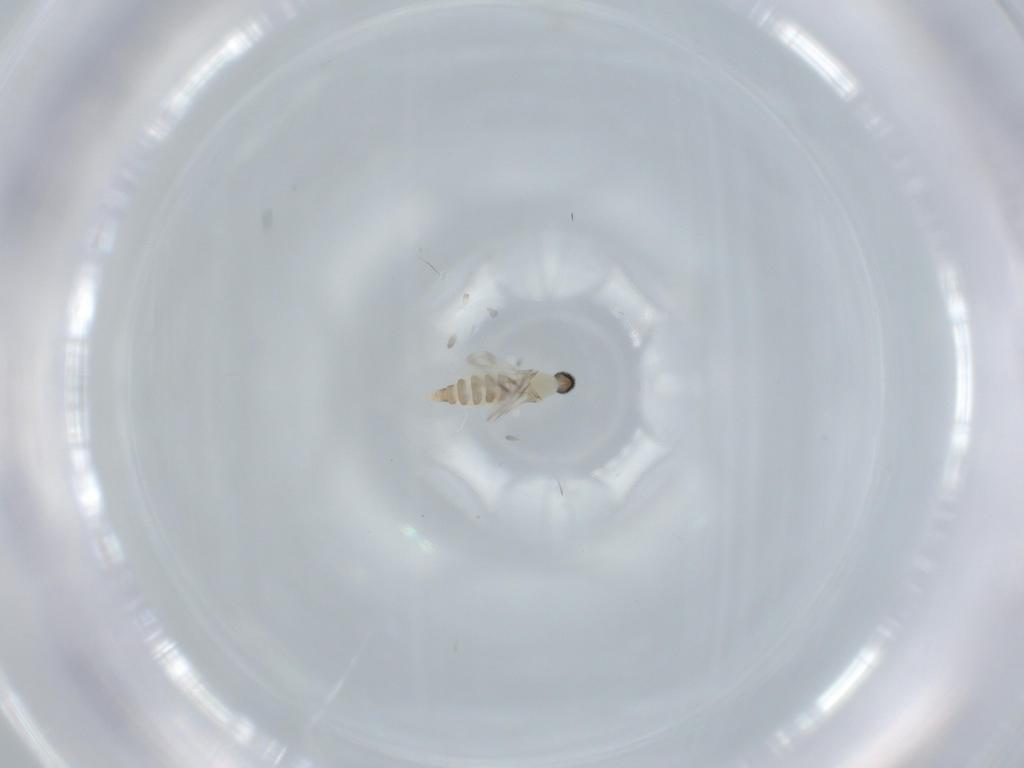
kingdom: Animalia
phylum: Arthropoda
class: Insecta
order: Diptera
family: Cecidomyiidae
